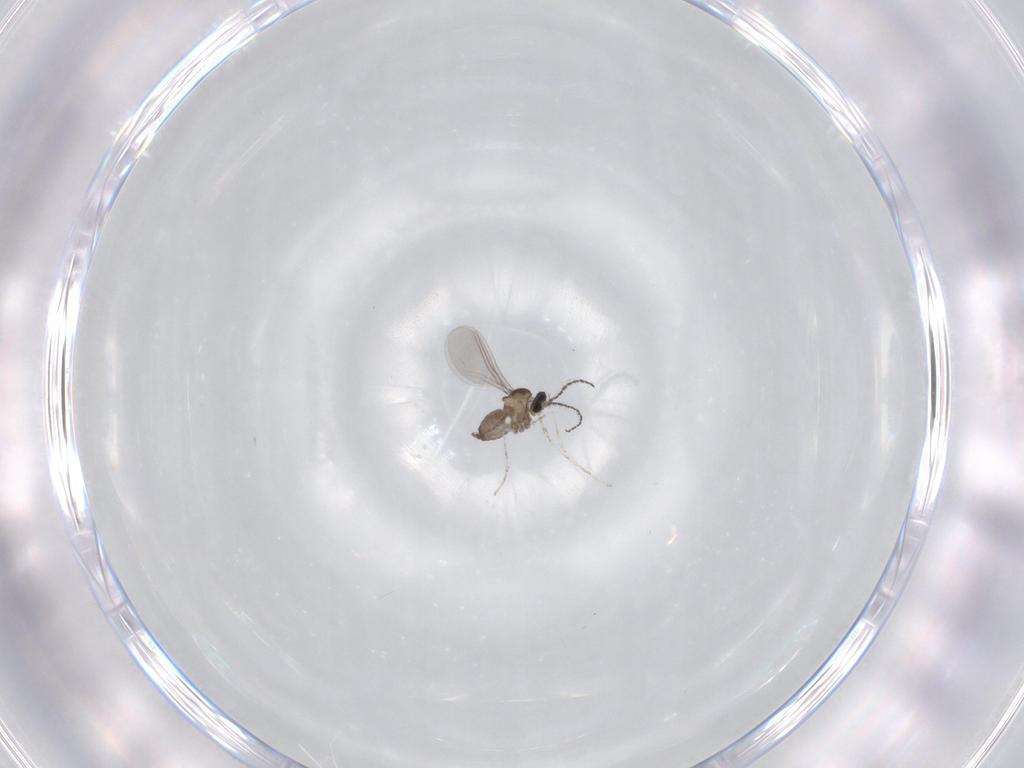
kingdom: Animalia
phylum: Arthropoda
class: Insecta
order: Diptera
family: Cecidomyiidae
